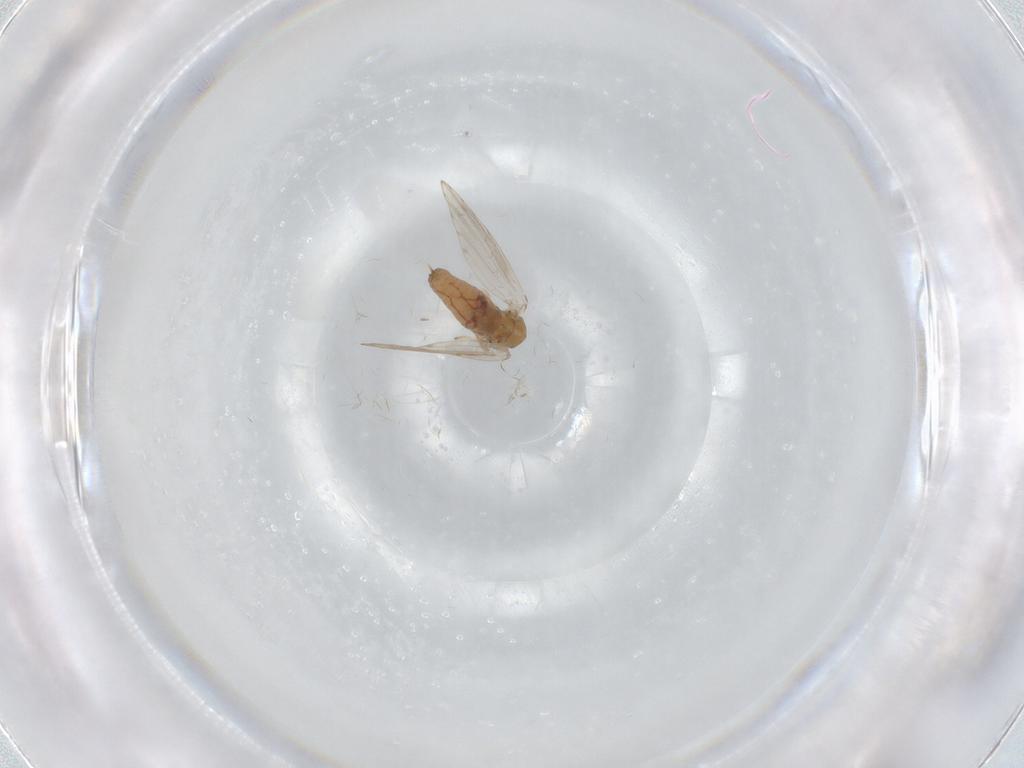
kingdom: Animalia
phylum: Arthropoda
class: Insecta
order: Diptera
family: Psychodidae
